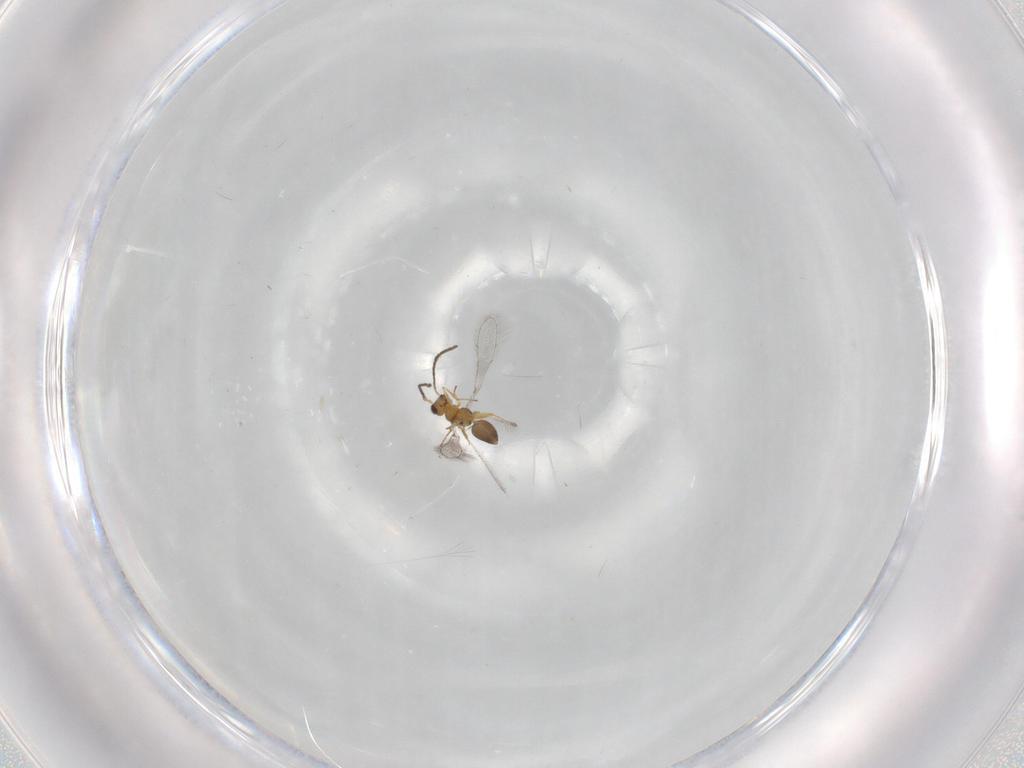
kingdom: Animalia
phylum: Arthropoda
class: Insecta
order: Hymenoptera
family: Mymaridae
